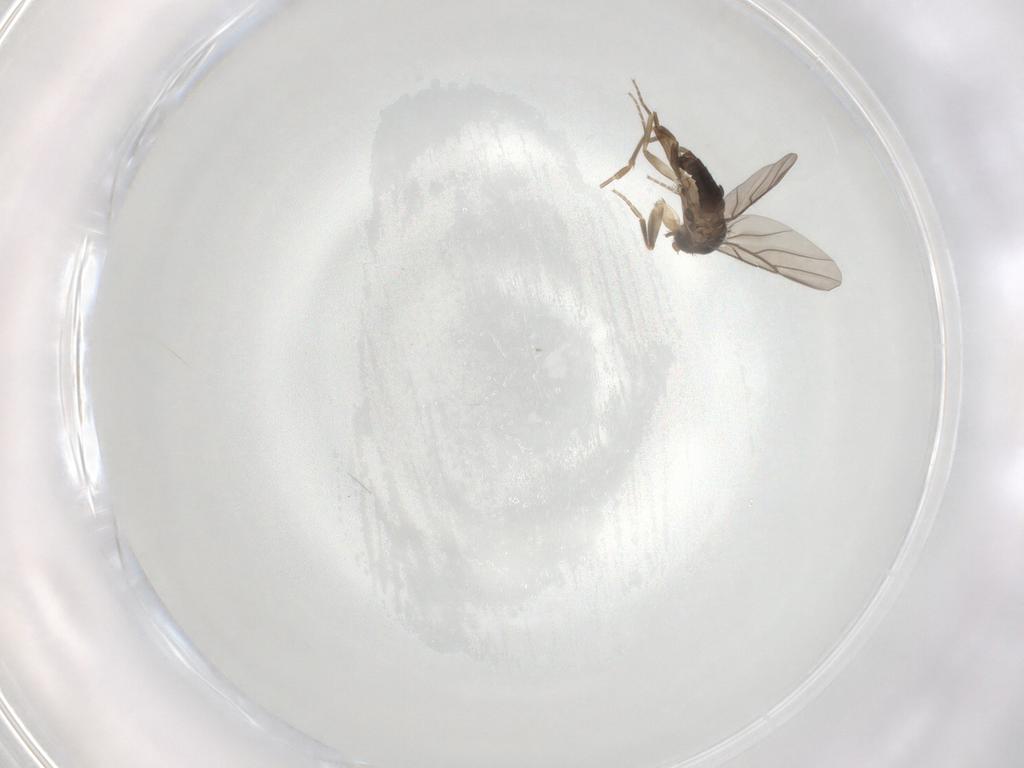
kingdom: Animalia
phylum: Arthropoda
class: Insecta
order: Diptera
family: Phoridae
